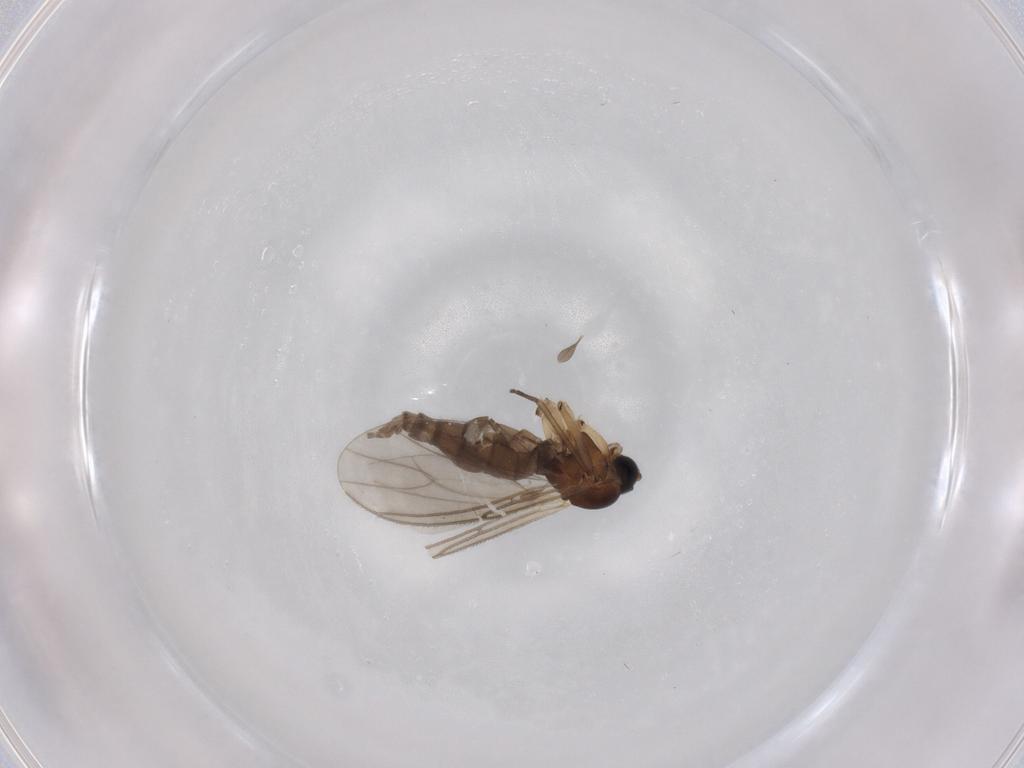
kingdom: Animalia
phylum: Arthropoda
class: Insecta
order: Diptera
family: Sciaridae
